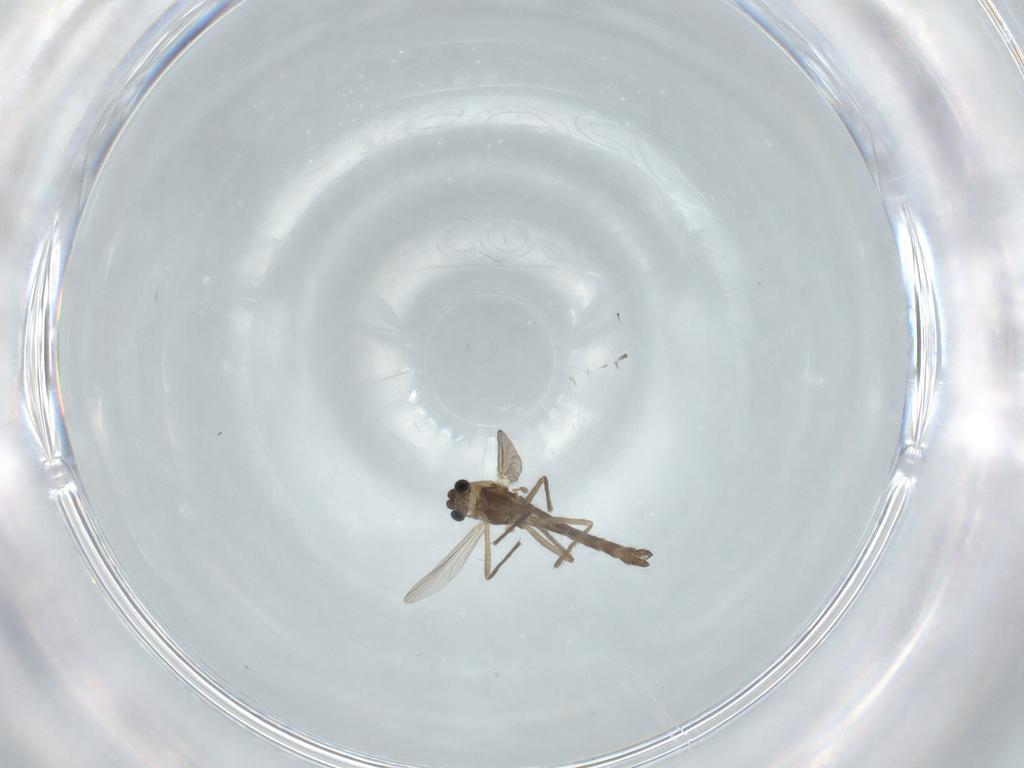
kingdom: Animalia
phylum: Arthropoda
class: Insecta
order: Diptera
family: Chironomidae
